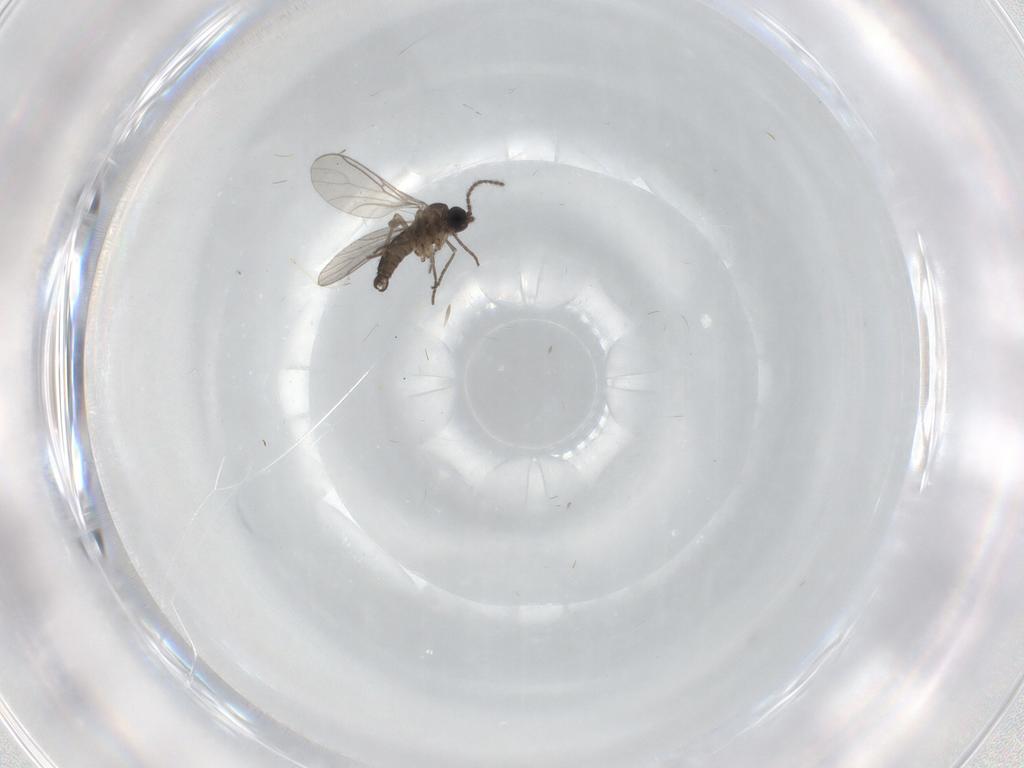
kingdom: Animalia
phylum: Arthropoda
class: Insecta
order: Diptera
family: Sciaridae
